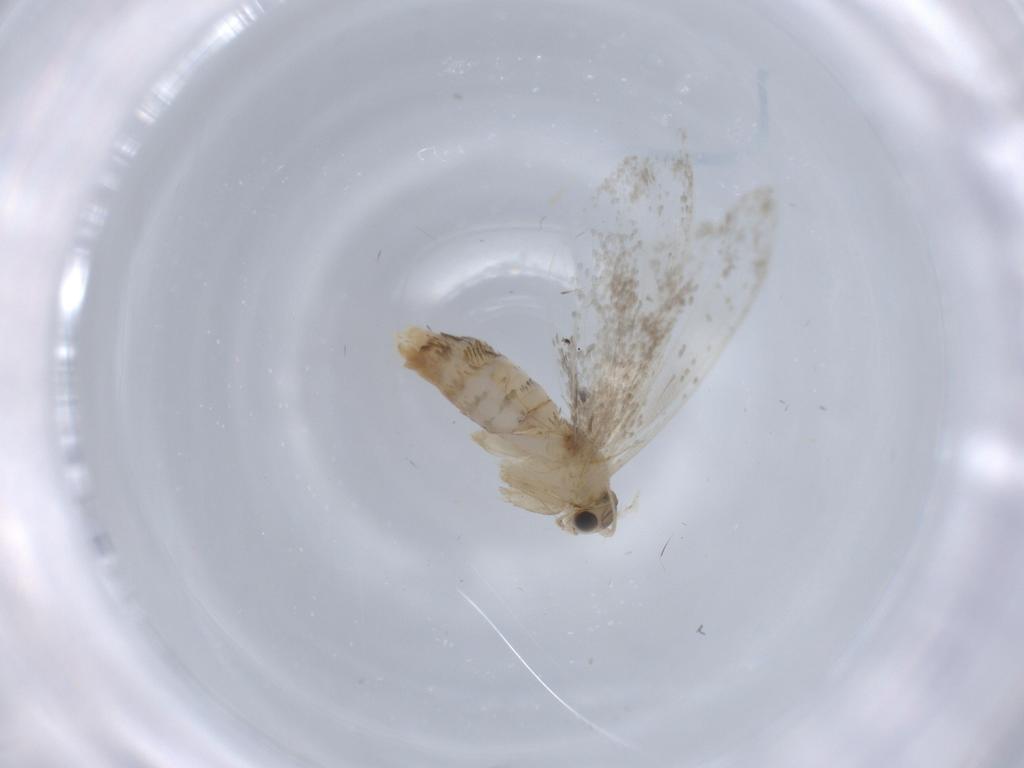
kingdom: Animalia
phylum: Arthropoda
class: Insecta
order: Lepidoptera
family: Tineidae
